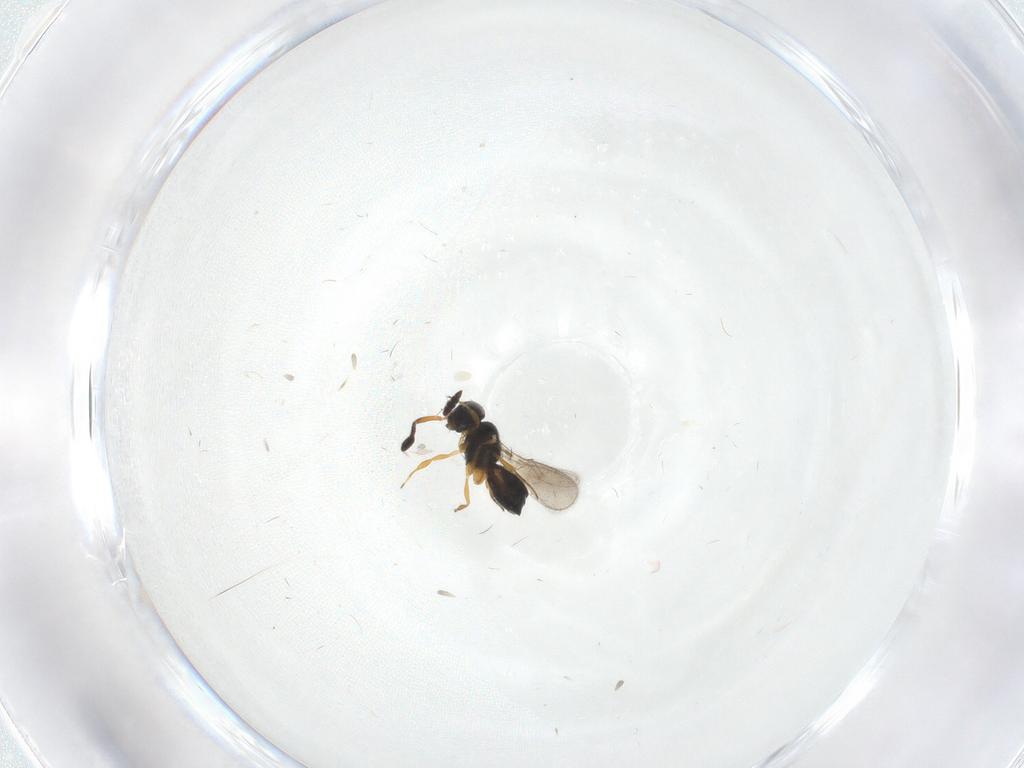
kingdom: Animalia
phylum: Arthropoda
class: Insecta
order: Hymenoptera
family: Scelionidae
